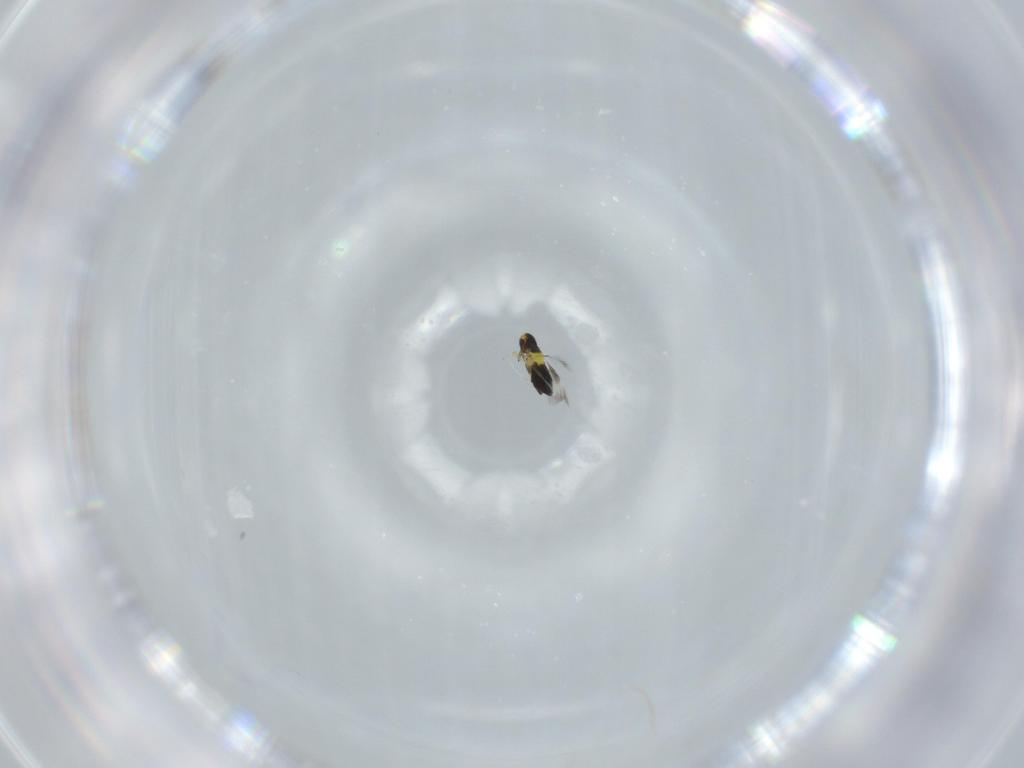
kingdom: Animalia
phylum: Arthropoda
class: Insecta
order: Hymenoptera
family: Signiphoridae
